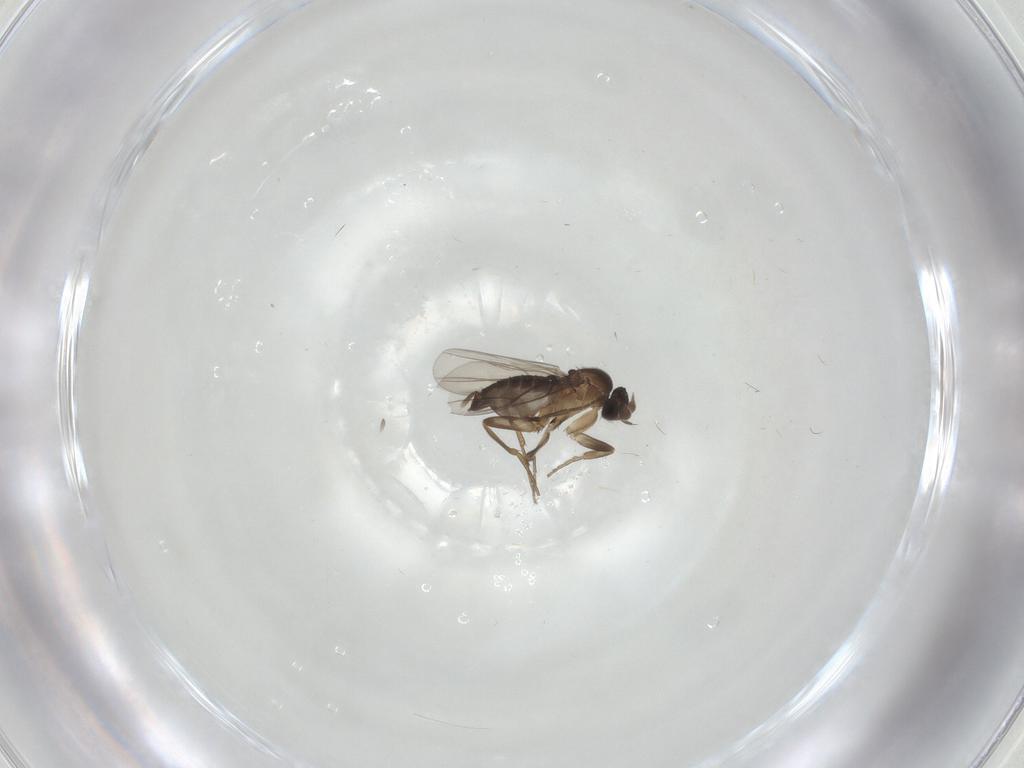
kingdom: Animalia
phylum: Arthropoda
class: Insecta
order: Diptera
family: Phoridae
